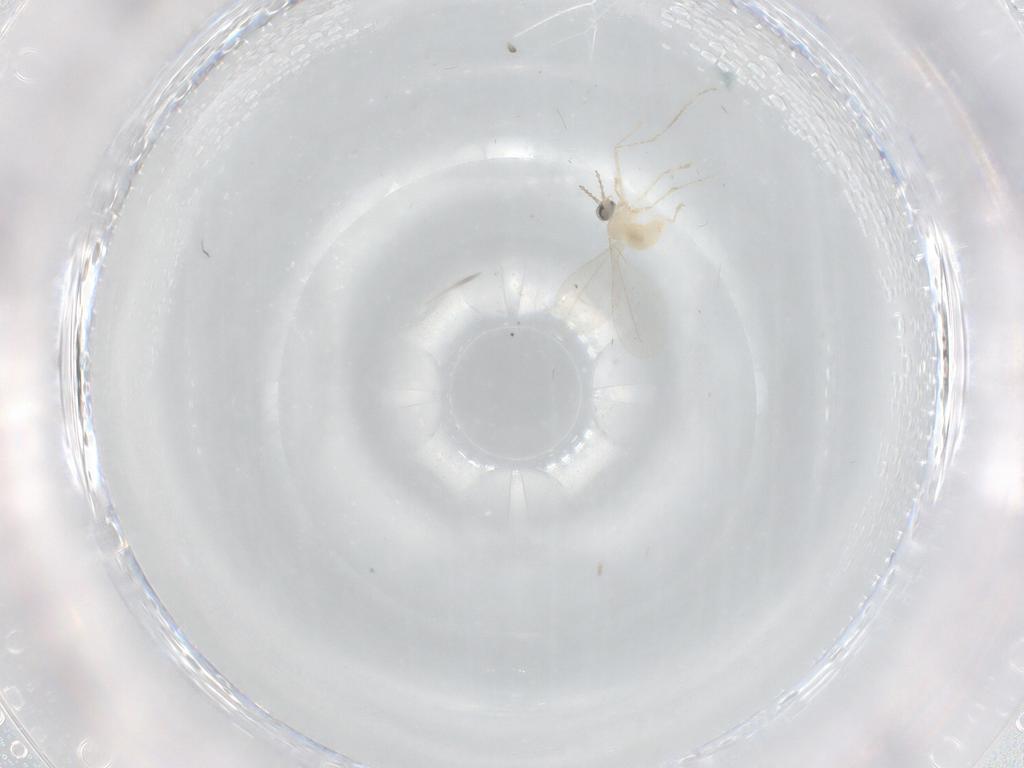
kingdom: Animalia
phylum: Arthropoda
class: Insecta
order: Diptera
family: Cecidomyiidae
